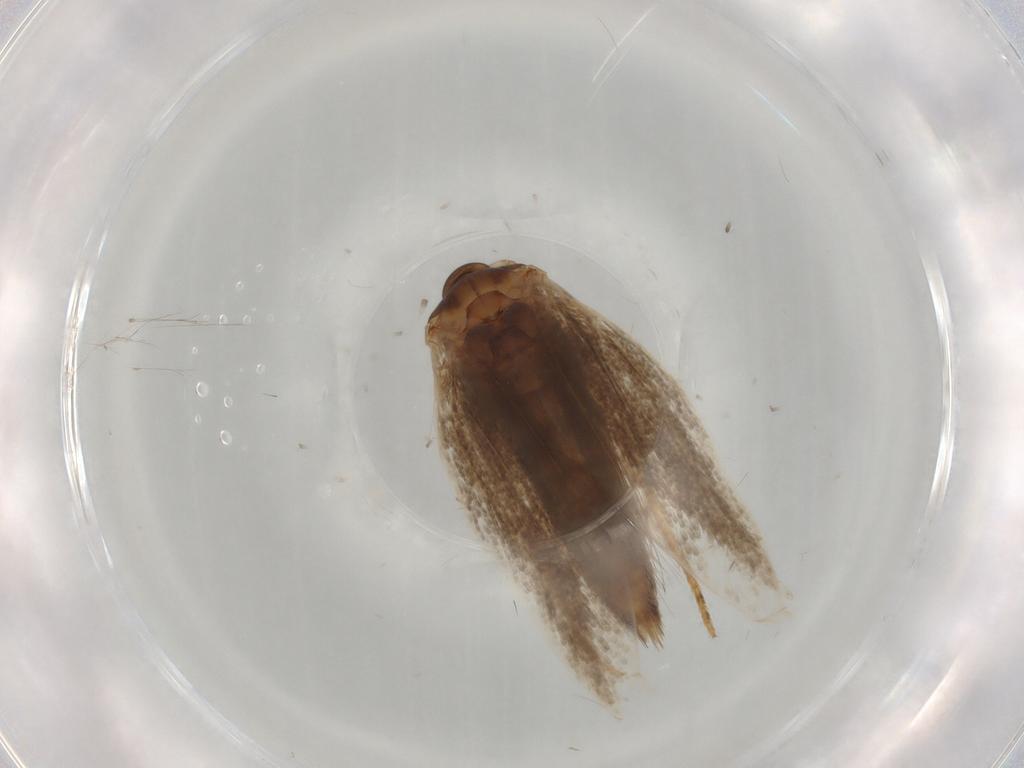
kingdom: Animalia
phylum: Arthropoda
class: Insecta
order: Lepidoptera
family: Elachistidae
